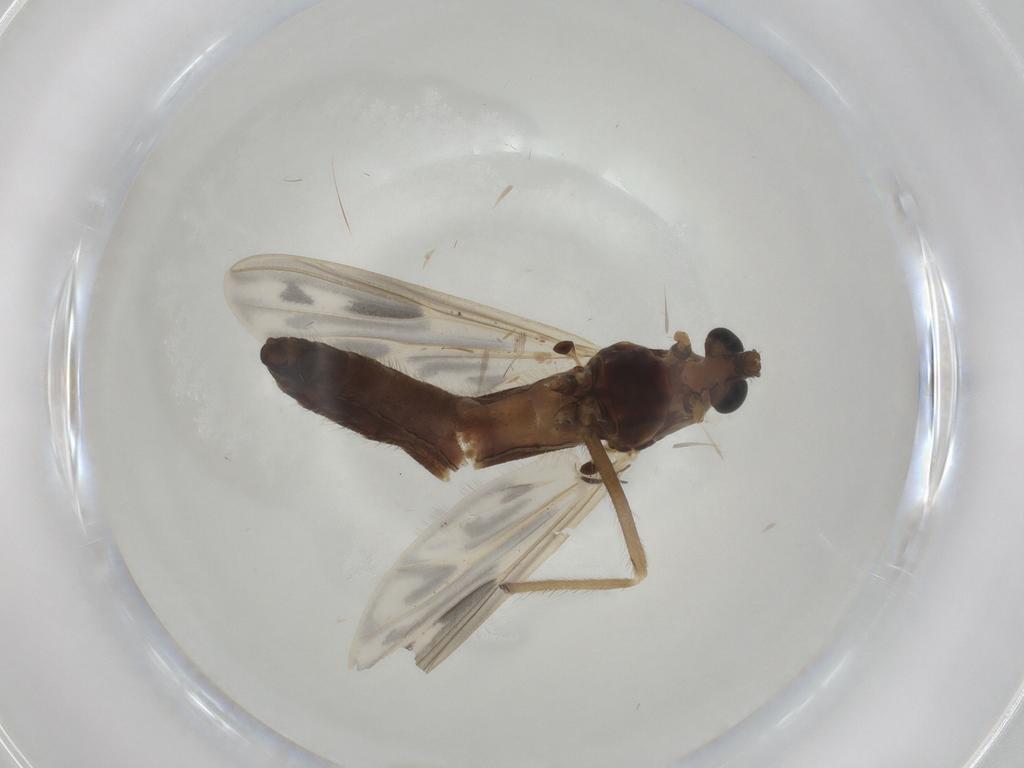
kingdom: Animalia
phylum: Arthropoda
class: Insecta
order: Diptera
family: Chironomidae
